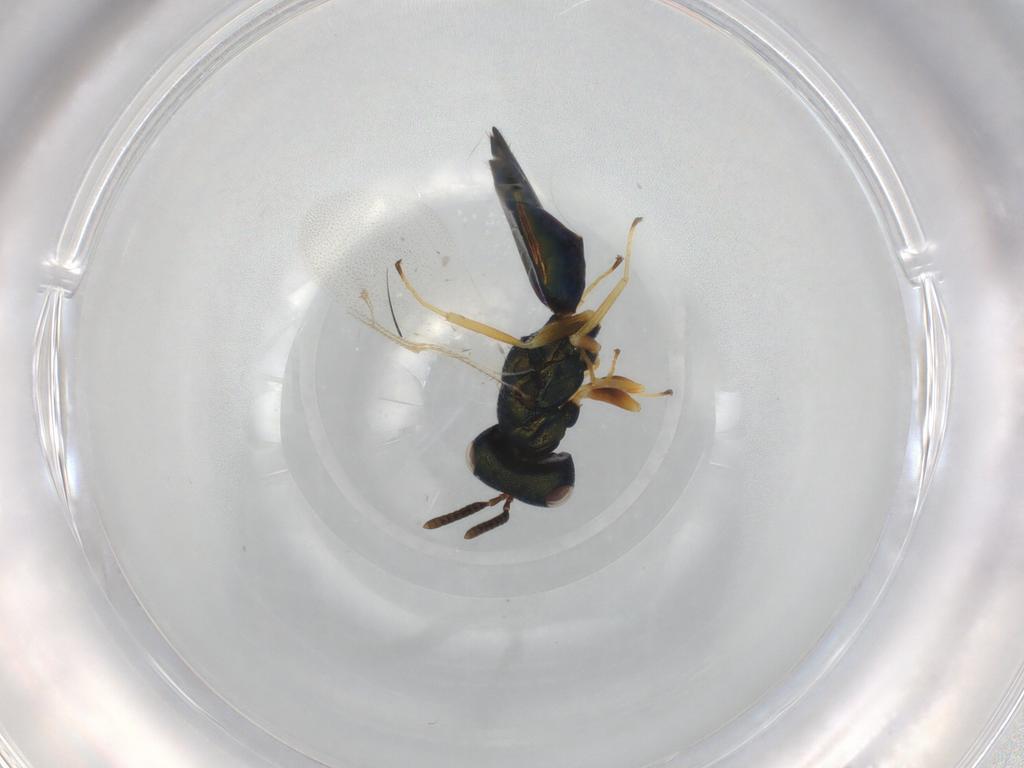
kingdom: Animalia
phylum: Arthropoda
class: Insecta
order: Hymenoptera
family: Pteromalidae
